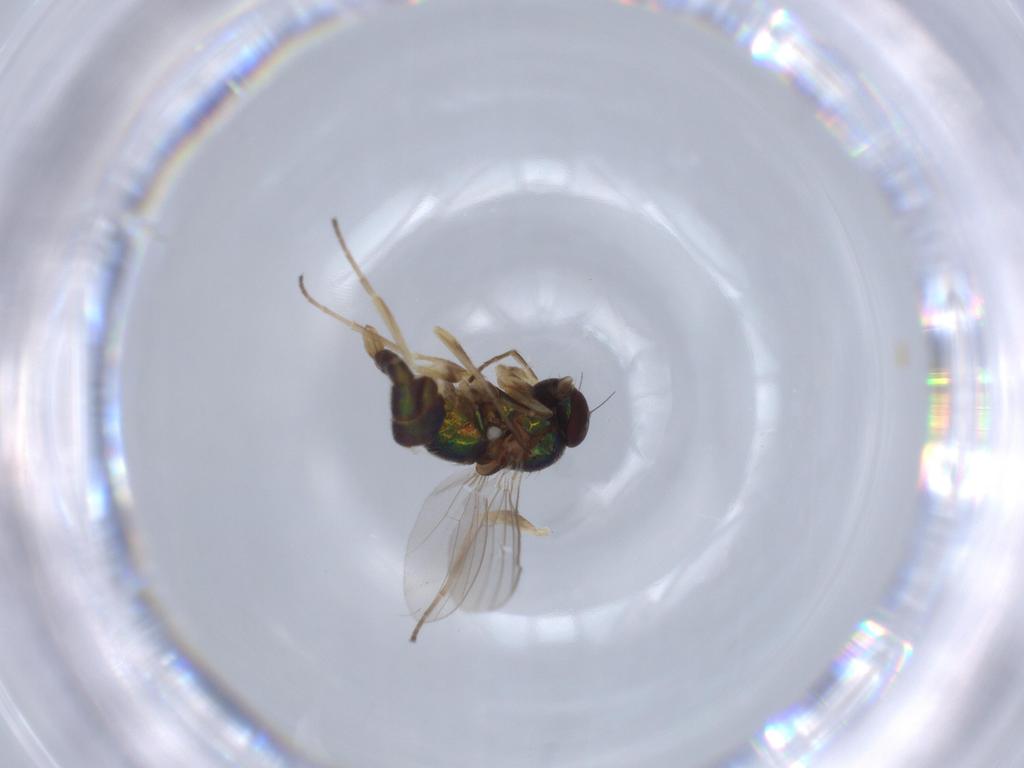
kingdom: Animalia
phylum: Arthropoda
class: Insecta
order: Diptera
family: Dolichopodidae
